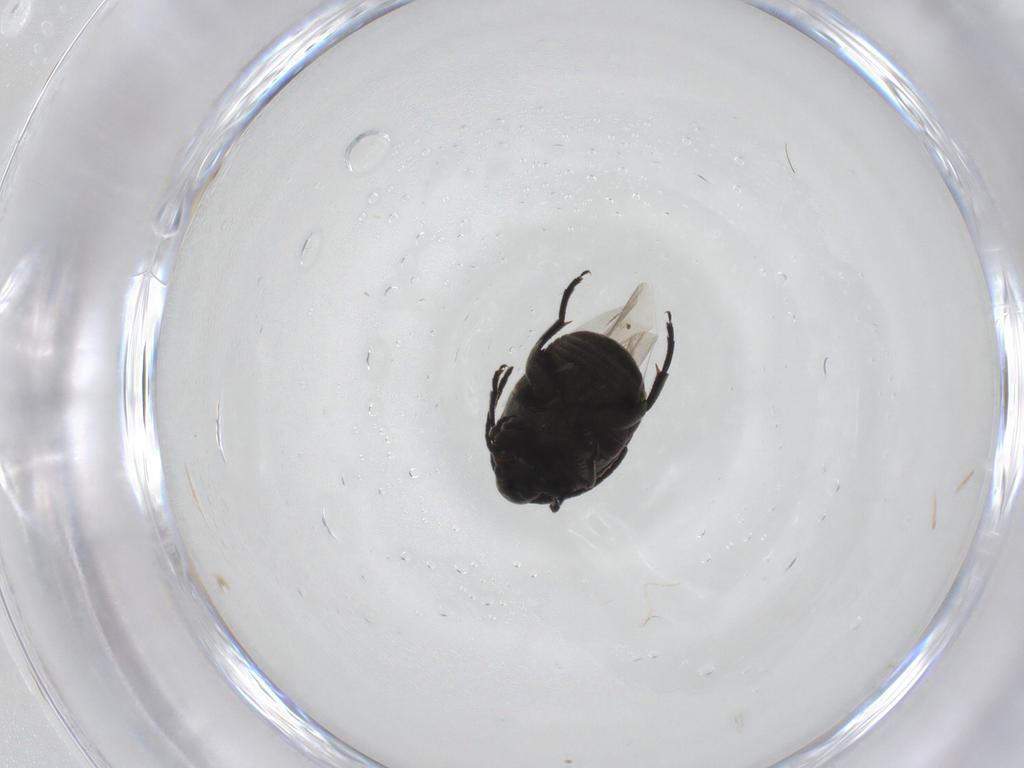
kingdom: Animalia
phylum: Arthropoda
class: Insecta
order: Coleoptera
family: Chrysomelidae
